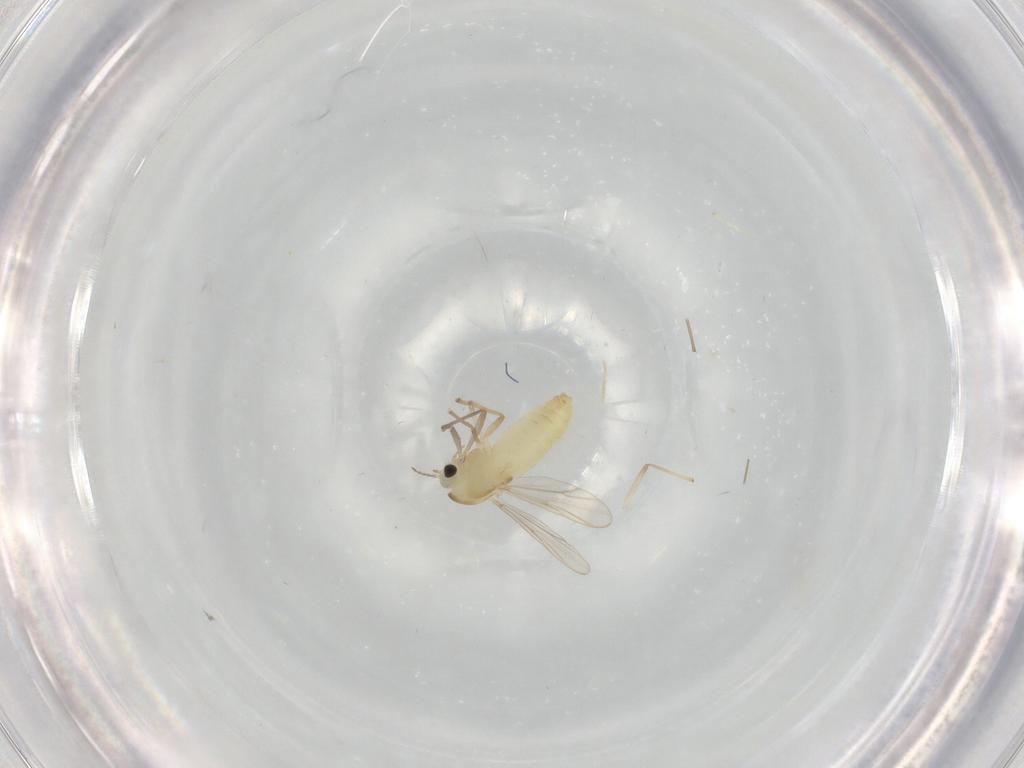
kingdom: Animalia
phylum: Arthropoda
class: Insecta
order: Diptera
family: Chironomidae
